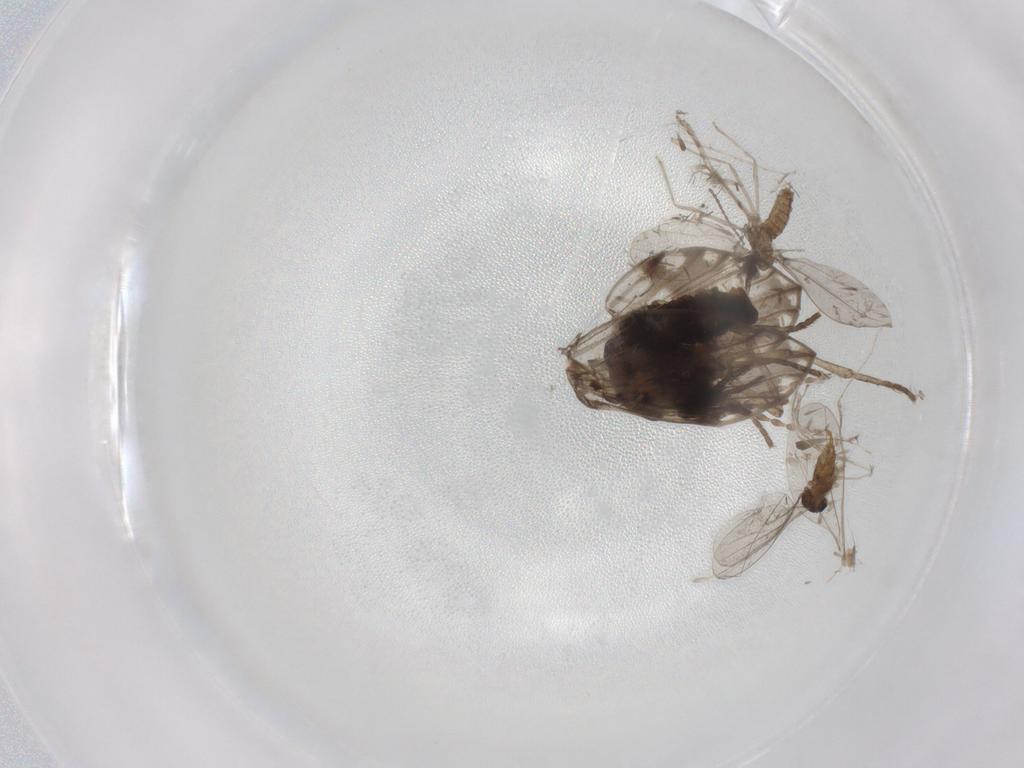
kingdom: Animalia
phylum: Arthropoda
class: Insecta
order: Diptera
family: Psychodidae
